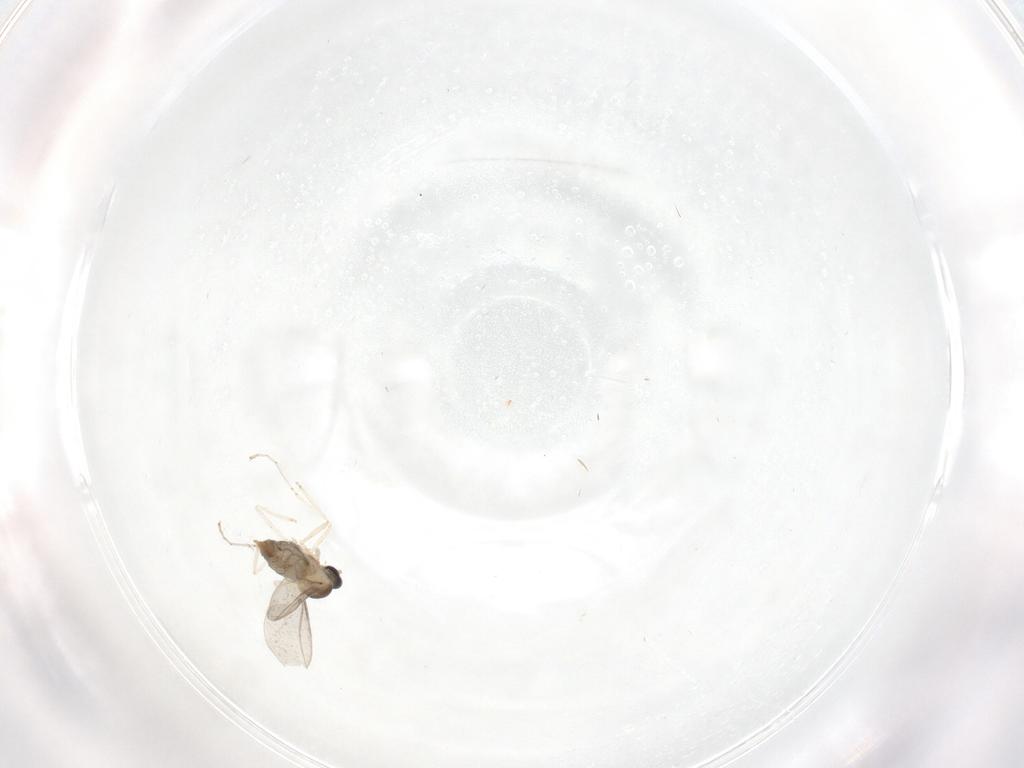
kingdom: Animalia
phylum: Arthropoda
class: Insecta
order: Diptera
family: Cecidomyiidae
